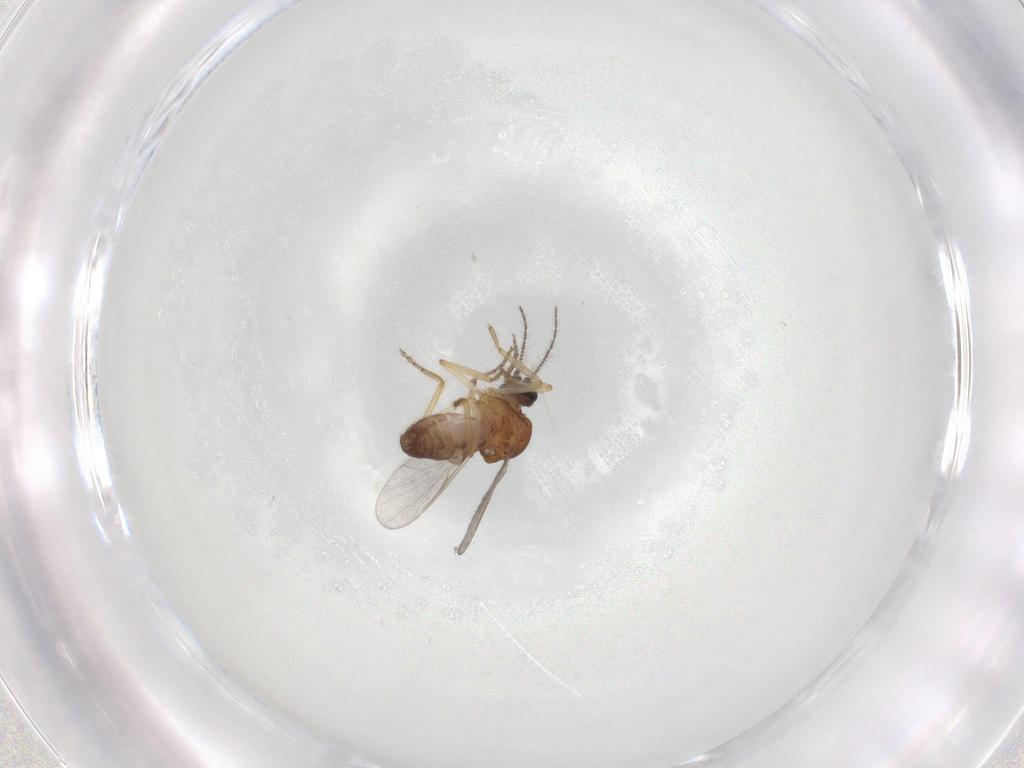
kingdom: Animalia
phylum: Arthropoda
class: Insecta
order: Diptera
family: Ceratopogonidae
